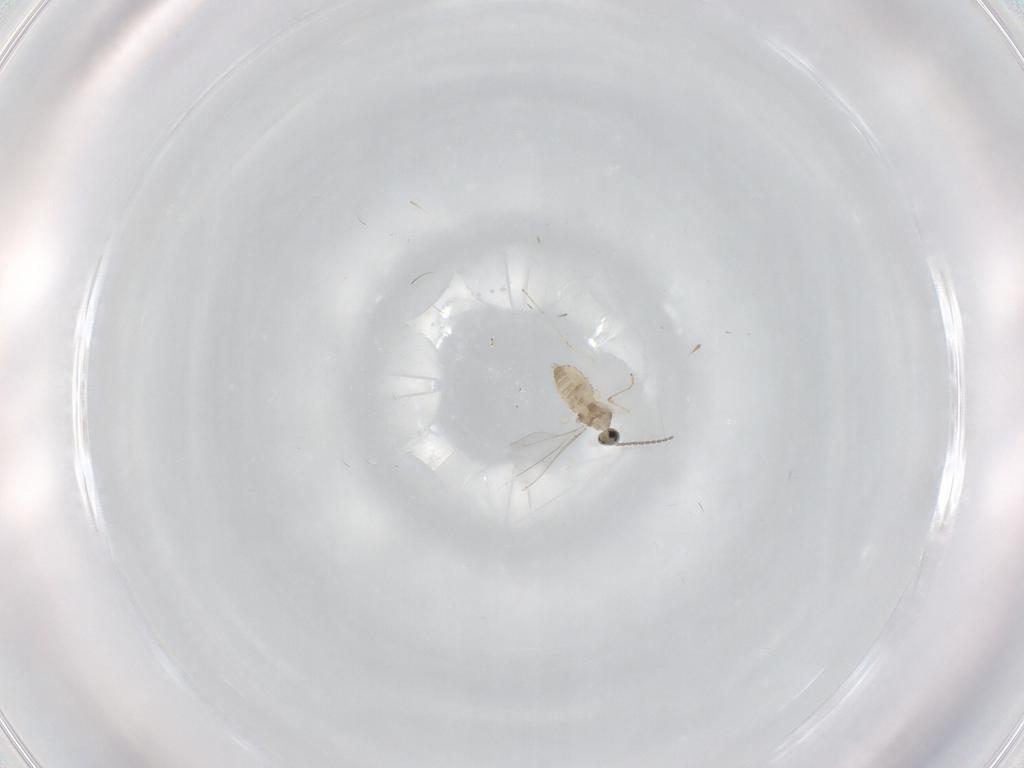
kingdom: Animalia
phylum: Arthropoda
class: Insecta
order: Diptera
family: Cecidomyiidae
